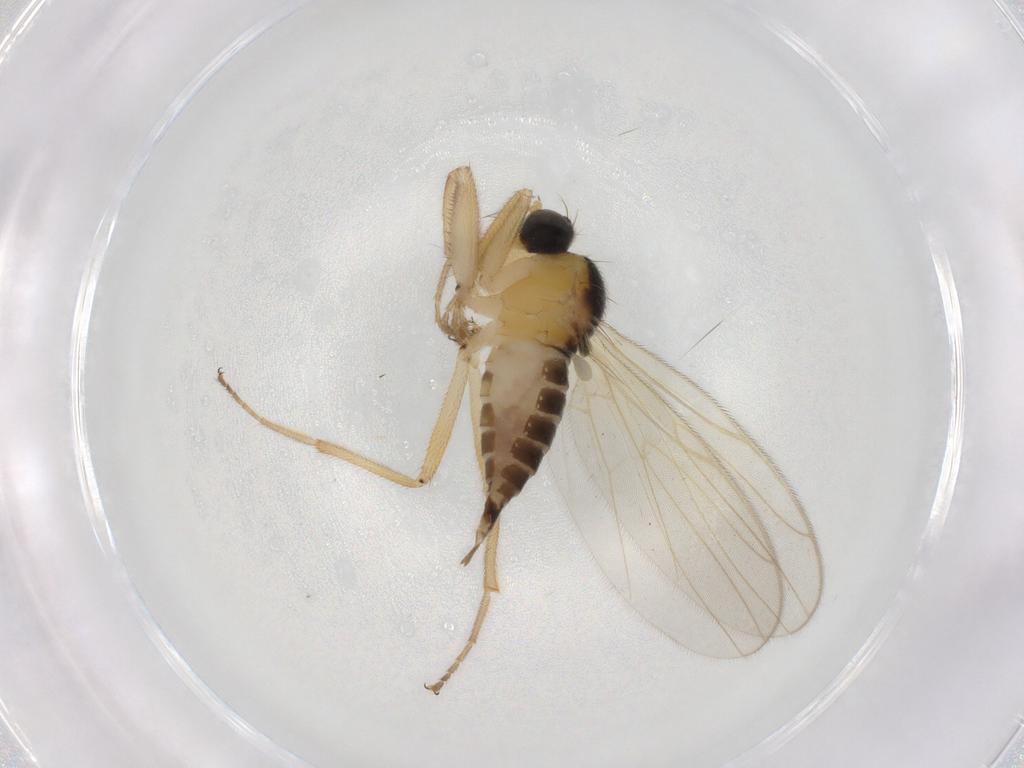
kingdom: Animalia
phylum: Arthropoda
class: Insecta
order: Diptera
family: Hybotidae
